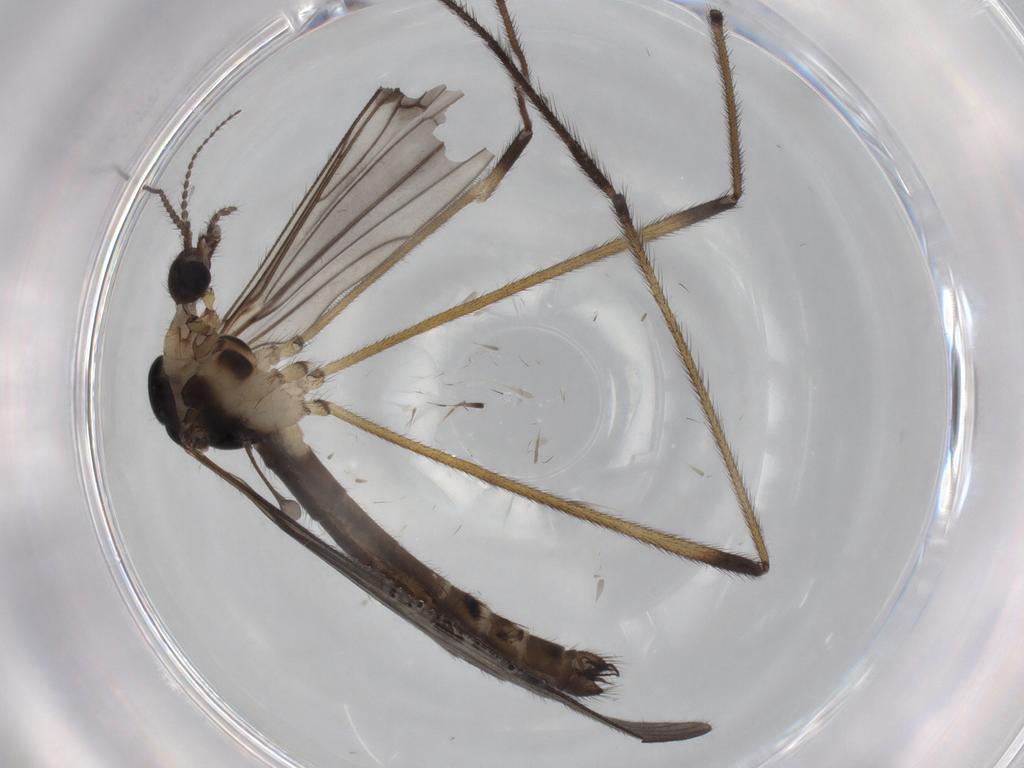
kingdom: Animalia
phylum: Arthropoda
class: Insecta
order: Diptera
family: Limoniidae
